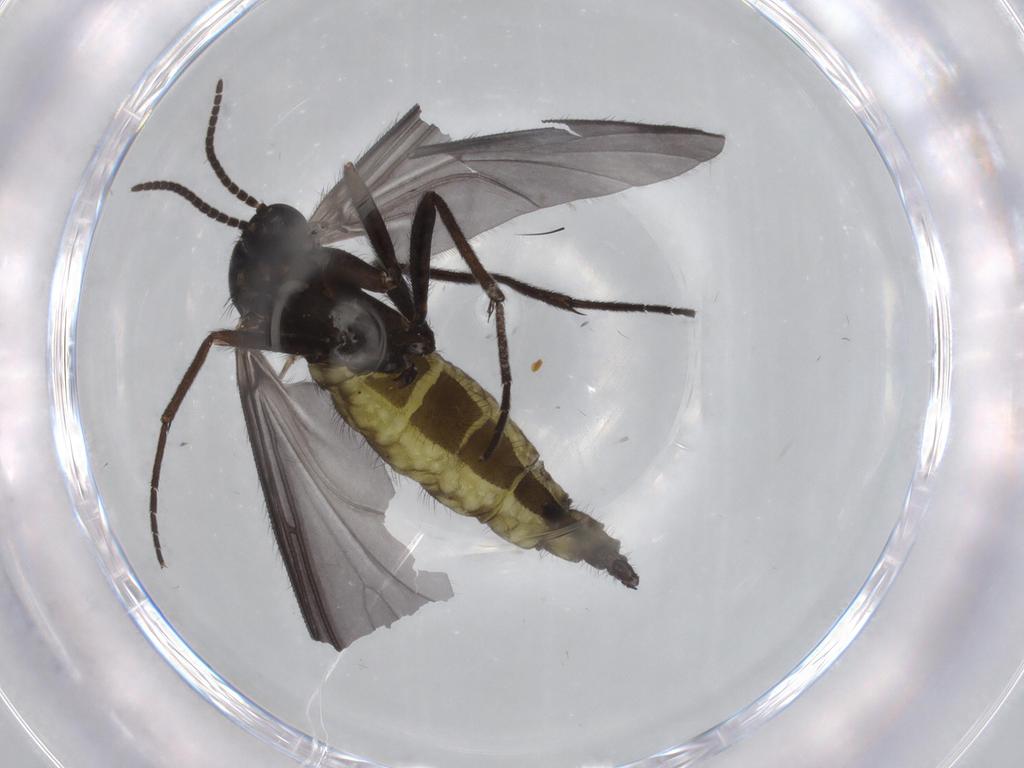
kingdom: Animalia
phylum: Arthropoda
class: Insecta
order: Diptera
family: Sciaridae
